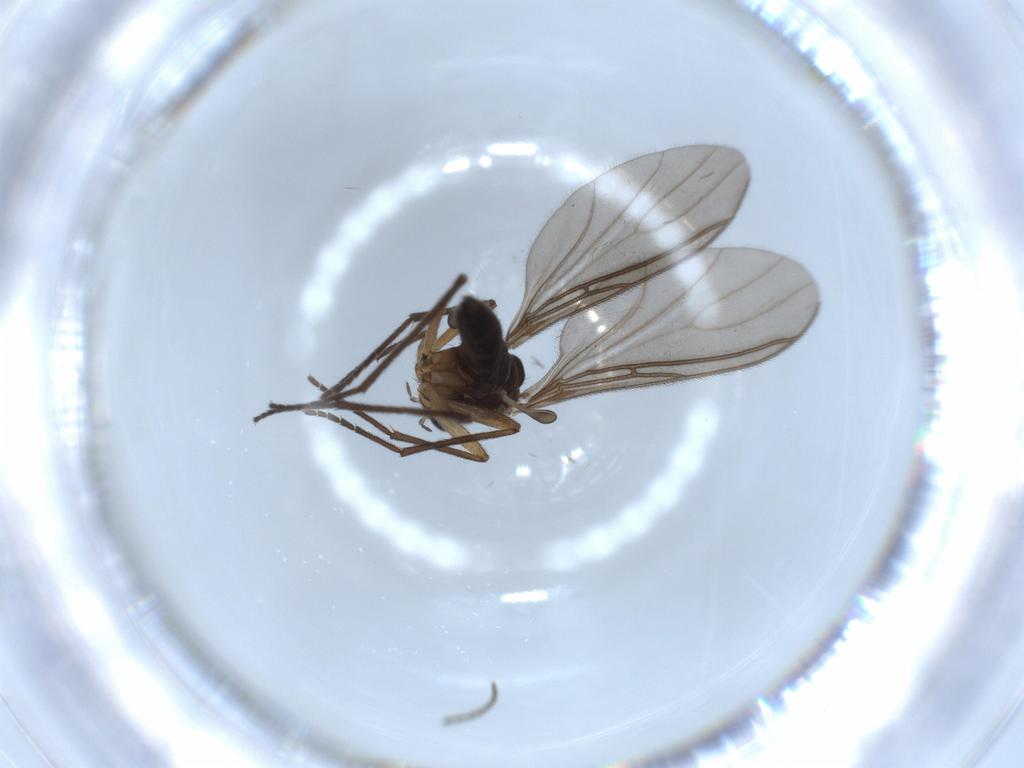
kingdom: Animalia
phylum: Arthropoda
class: Insecta
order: Diptera
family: Sciaridae
